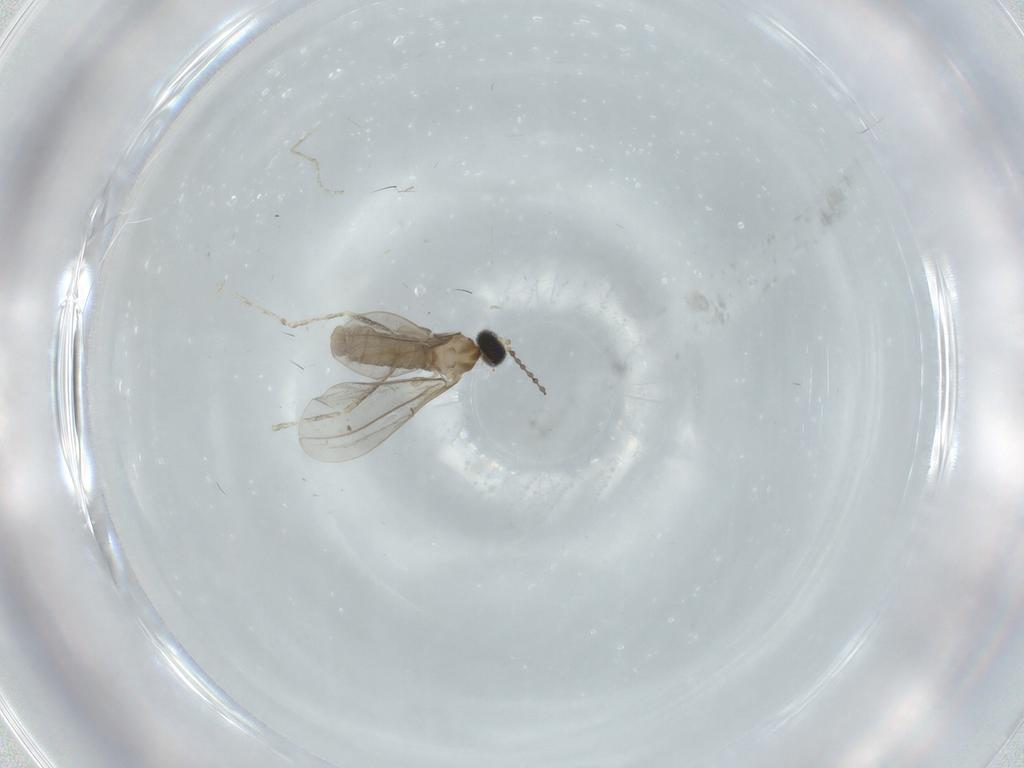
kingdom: Animalia
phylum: Arthropoda
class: Insecta
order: Diptera
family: Cecidomyiidae
